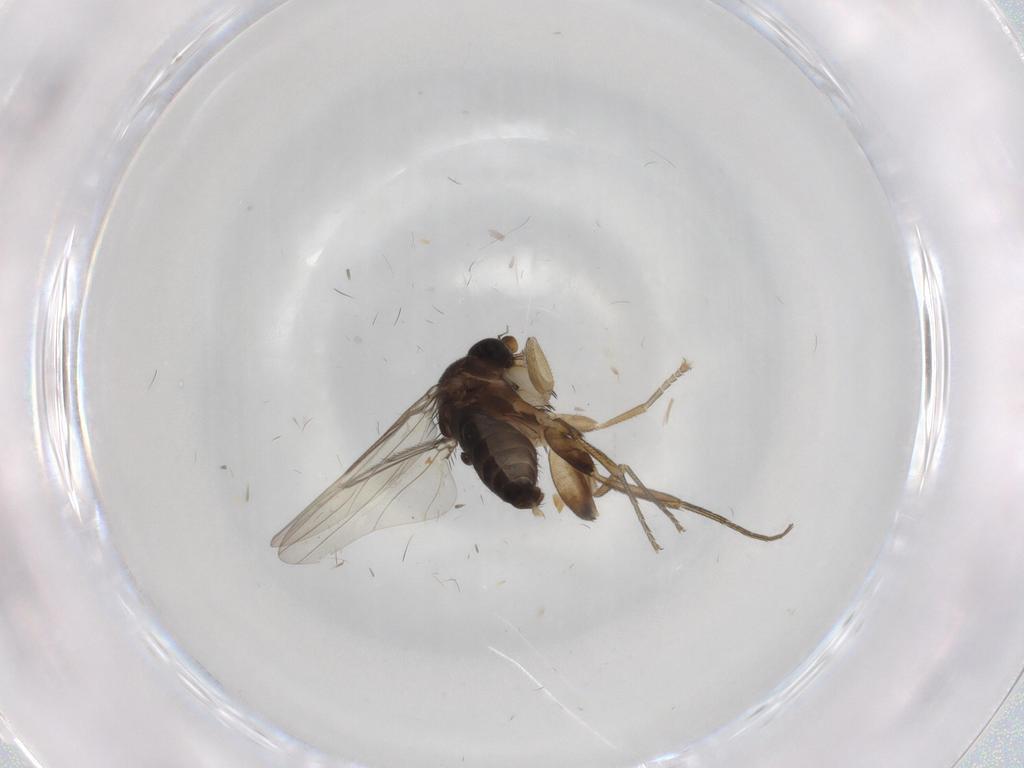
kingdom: Animalia
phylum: Arthropoda
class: Insecta
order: Diptera
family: Phoridae
